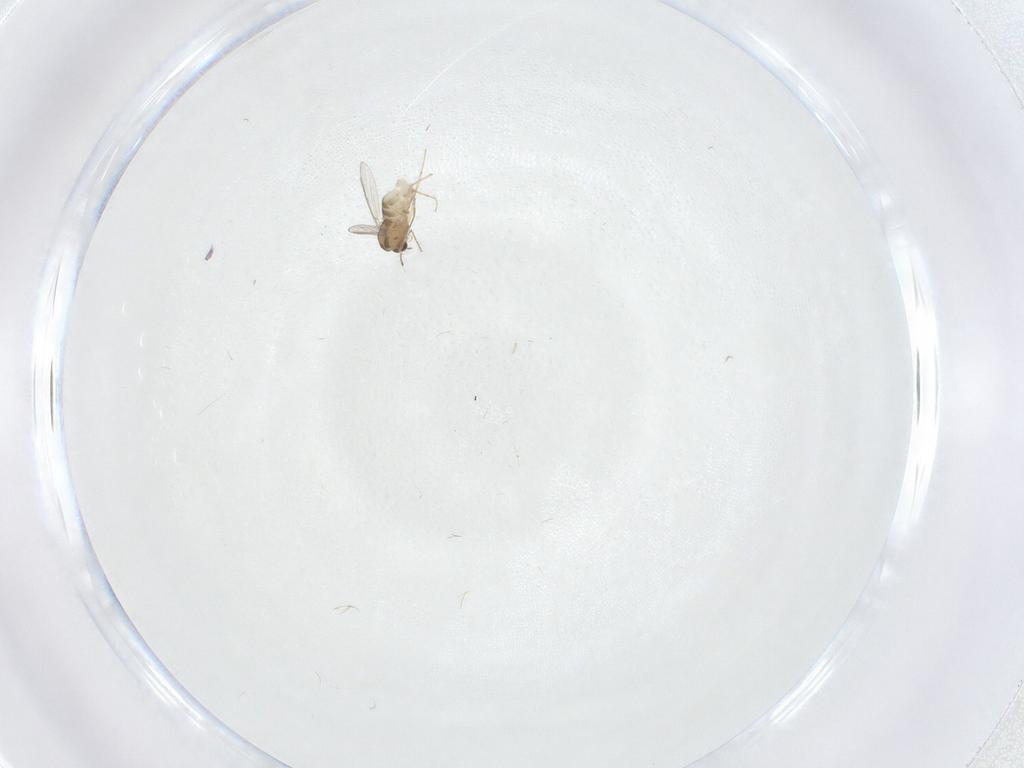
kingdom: Animalia
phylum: Arthropoda
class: Insecta
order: Diptera
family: Chironomidae
